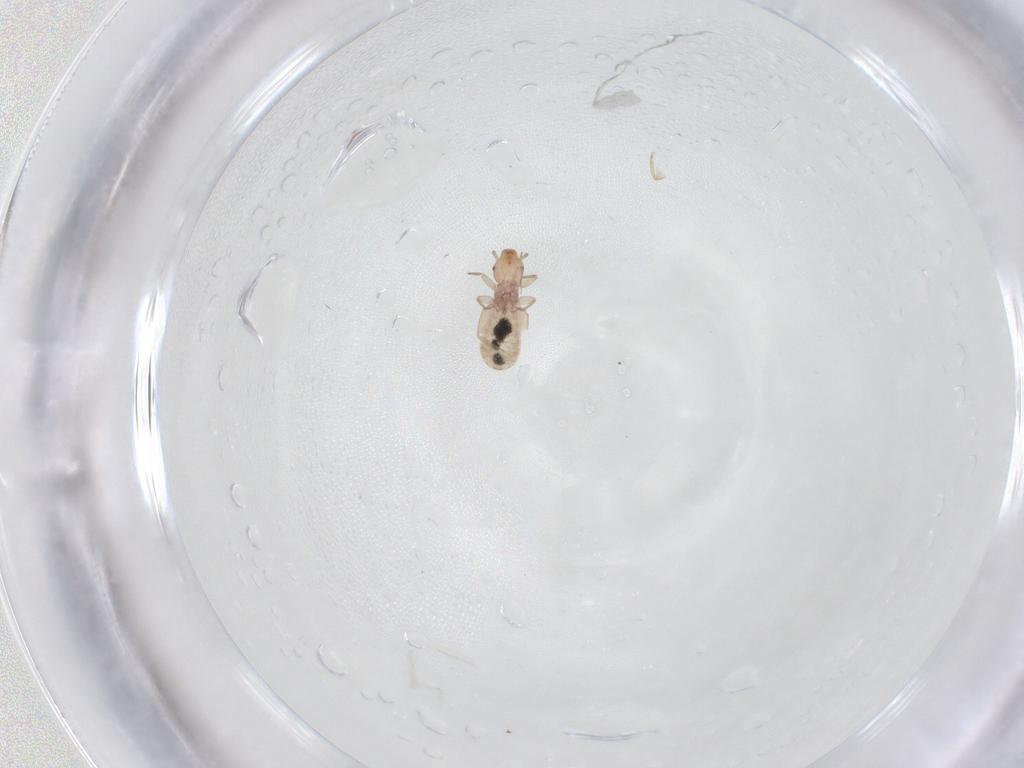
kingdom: Animalia
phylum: Arthropoda
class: Insecta
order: Psocodea
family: Liposcelididae
